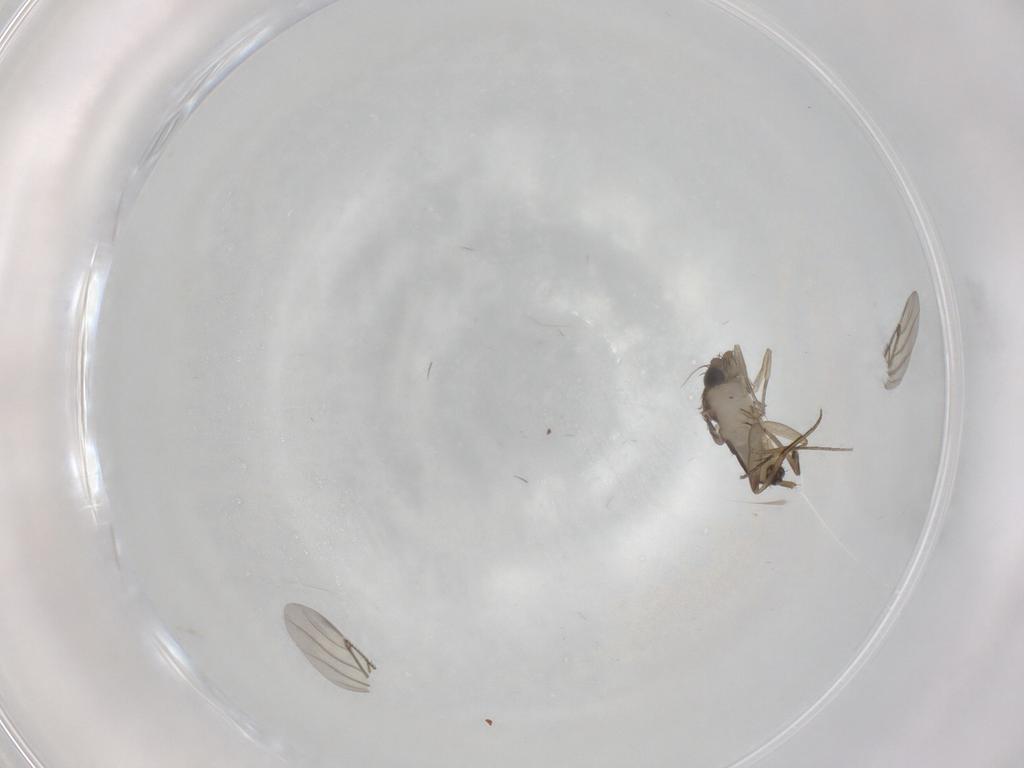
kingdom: Animalia
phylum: Arthropoda
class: Insecta
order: Diptera
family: Phoridae
